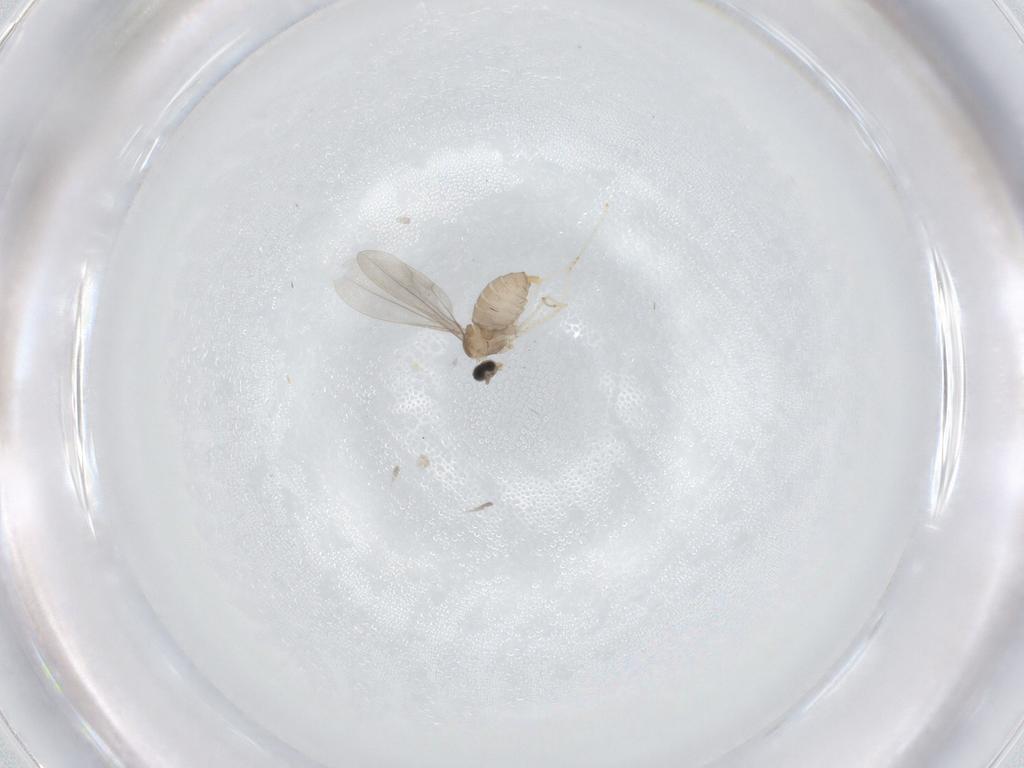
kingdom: Animalia
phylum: Arthropoda
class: Insecta
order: Diptera
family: Cecidomyiidae
